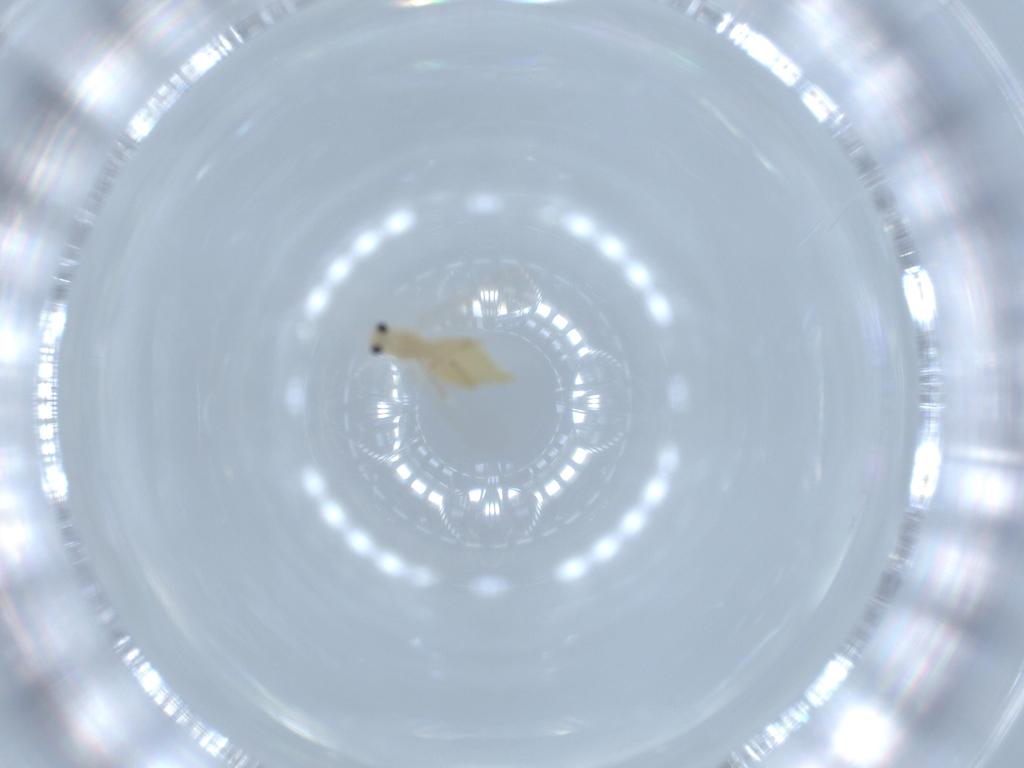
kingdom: Animalia
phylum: Arthropoda
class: Insecta
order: Diptera
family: Chironomidae
